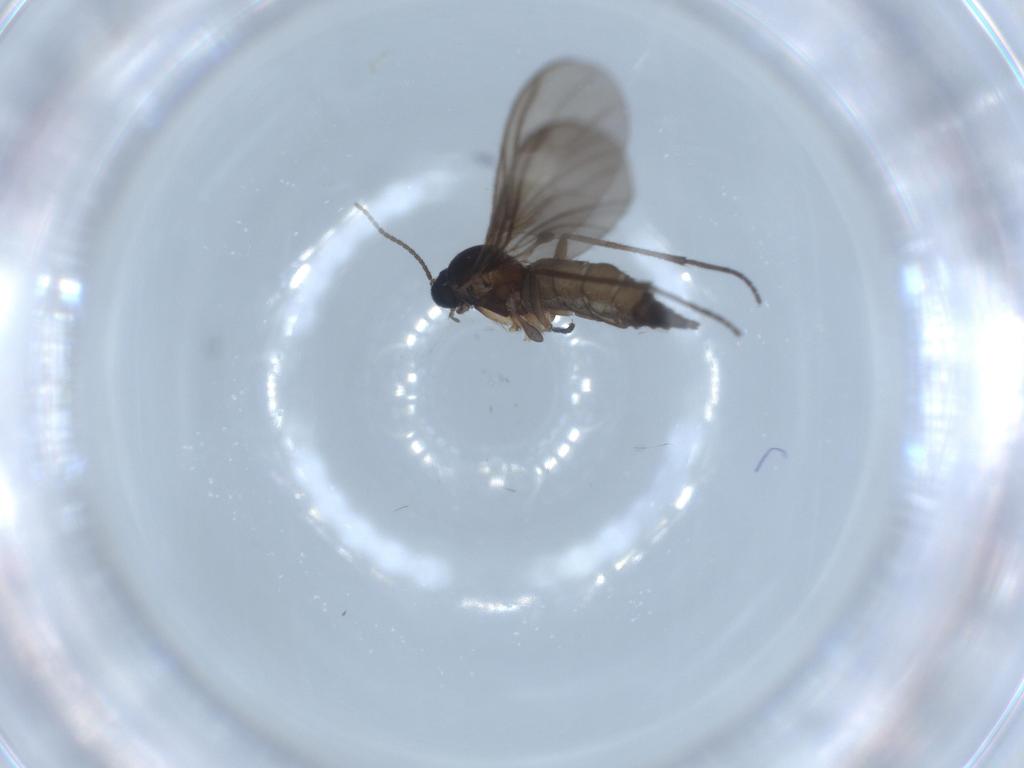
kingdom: Animalia
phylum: Arthropoda
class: Insecta
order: Diptera
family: Sciaridae
